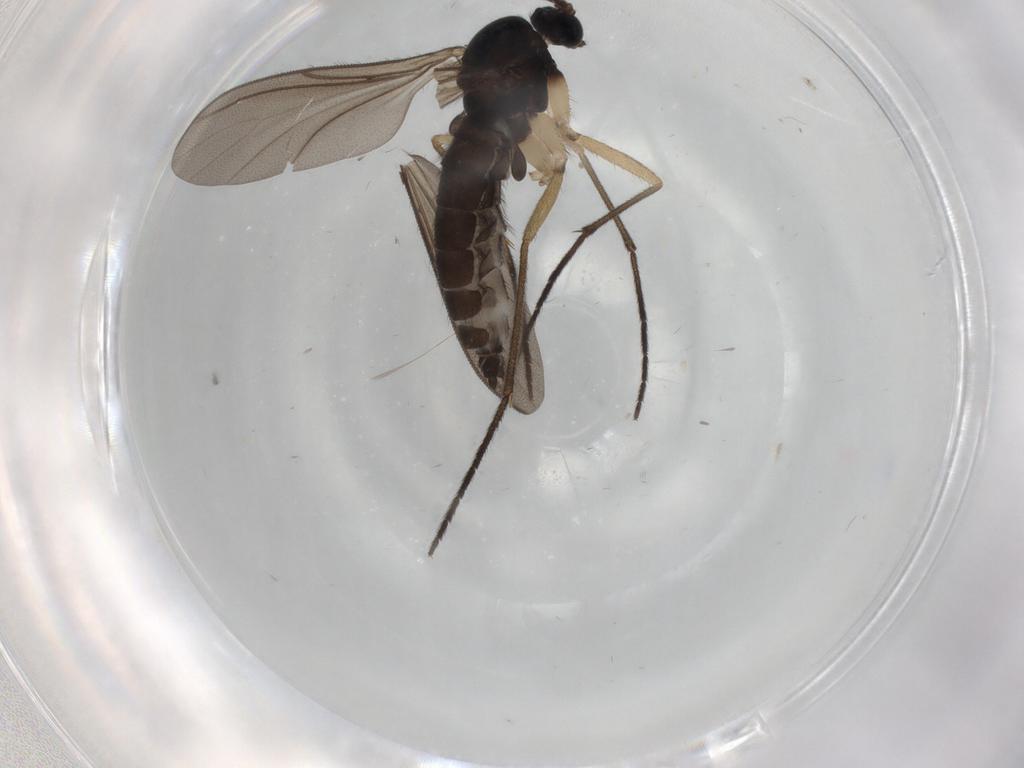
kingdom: Animalia
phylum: Arthropoda
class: Insecta
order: Diptera
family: Sciaridae
